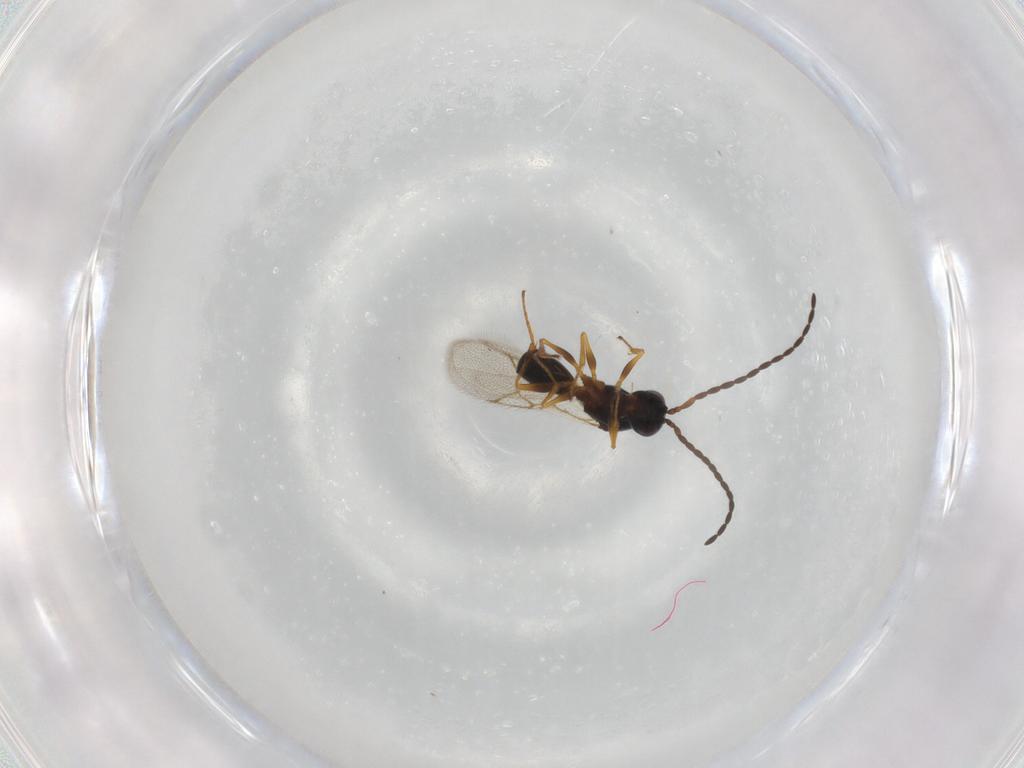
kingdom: Animalia
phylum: Arthropoda
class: Insecta
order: Hymenoptera
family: Figitidae
